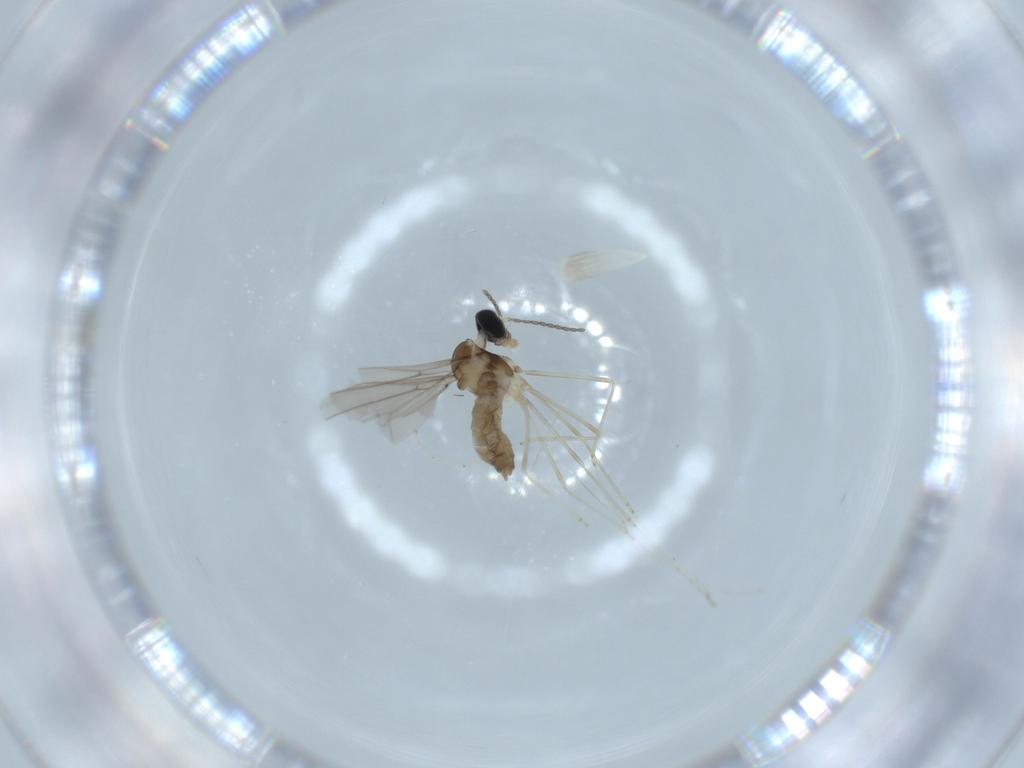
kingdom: Animalia
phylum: Arthropoda
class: Insecta
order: Diptera
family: Cecidomyiidae
